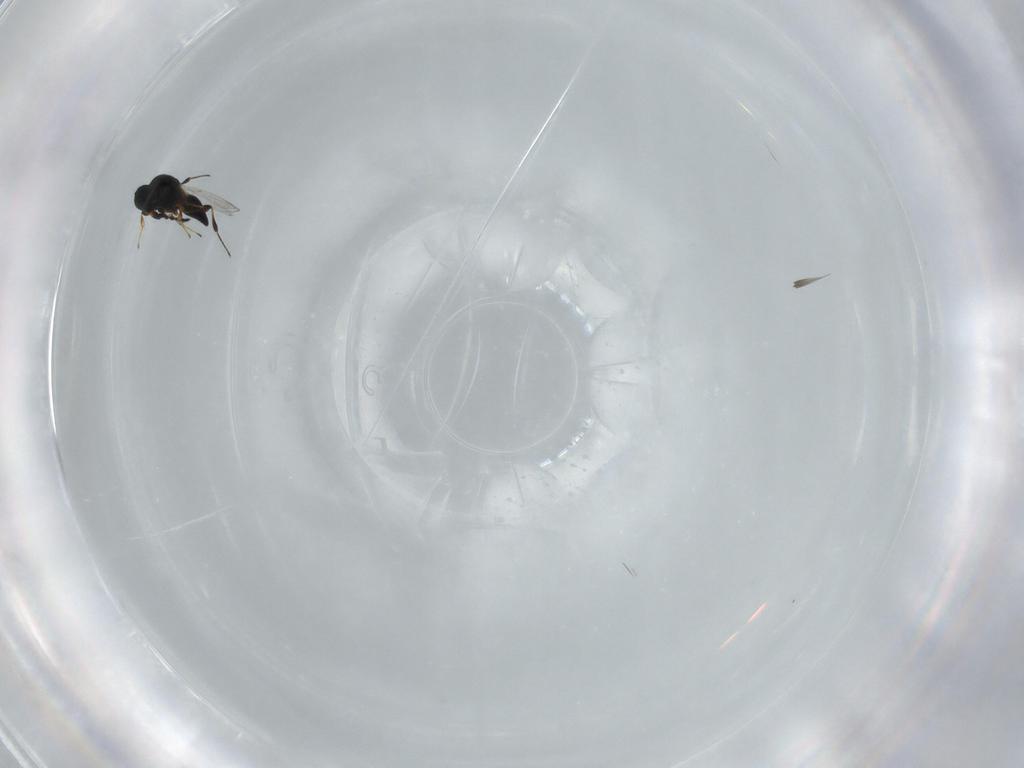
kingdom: Animalia
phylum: Arthropoda
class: Insecta
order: Hymenoptera
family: Platygastridae
